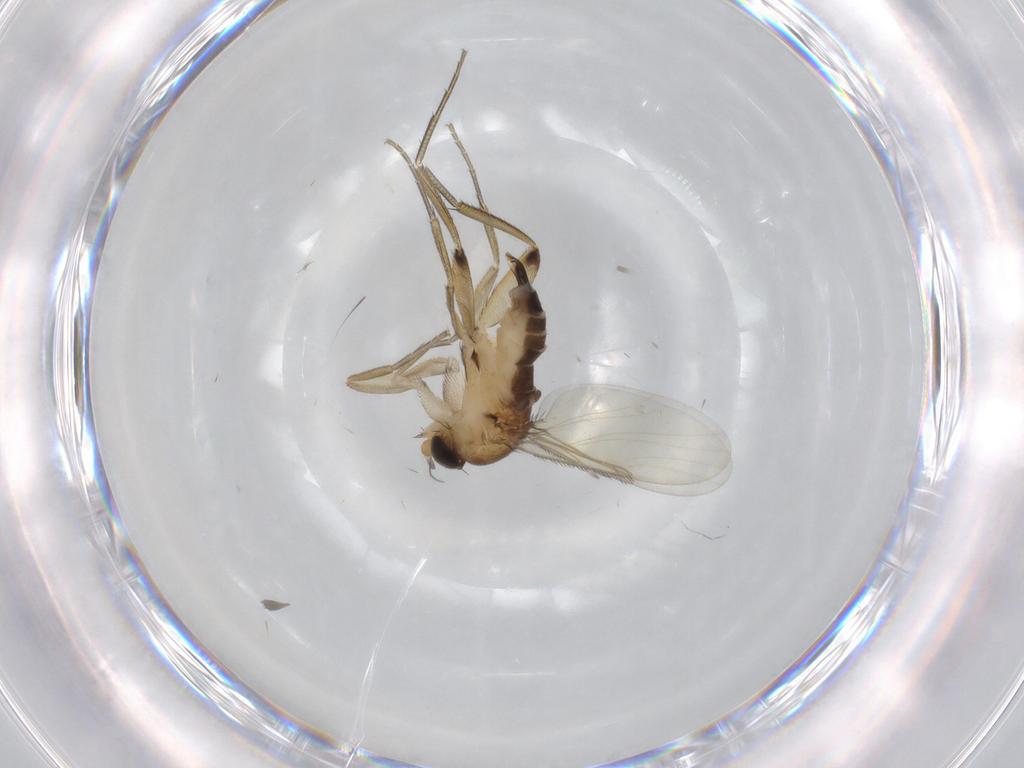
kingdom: Animalia
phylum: Arthropoda
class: Insecta
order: Diptera
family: Phoridae
